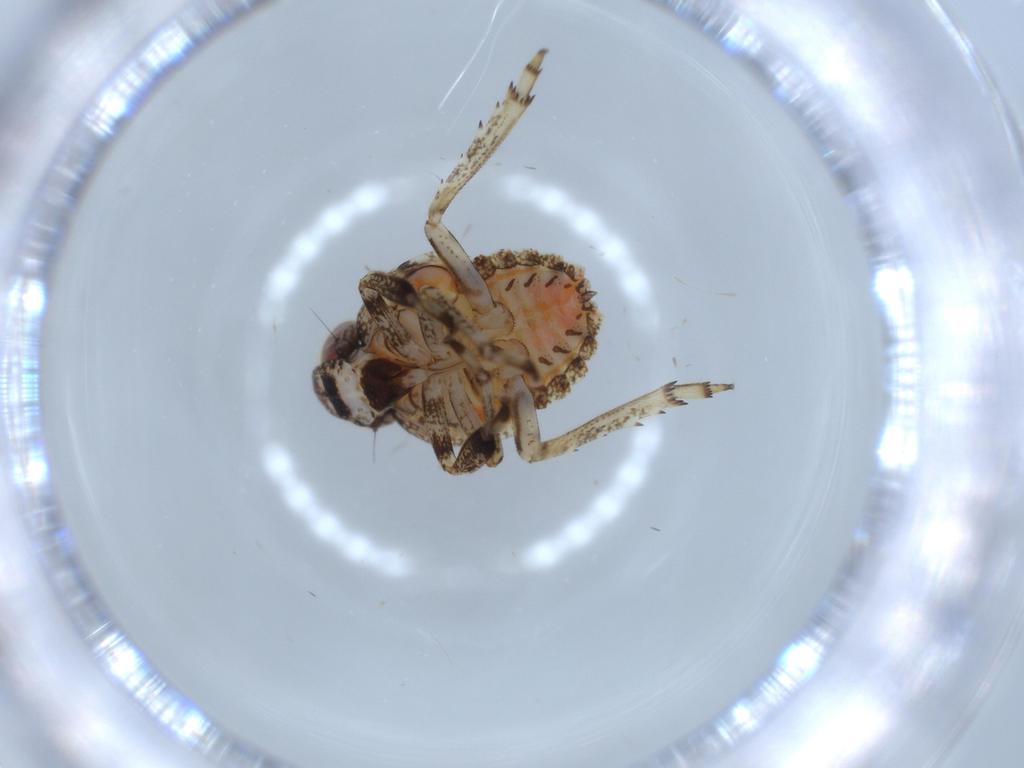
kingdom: Animalia
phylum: Arthropoda
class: Insecta
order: Hemiptera
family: Issidae
